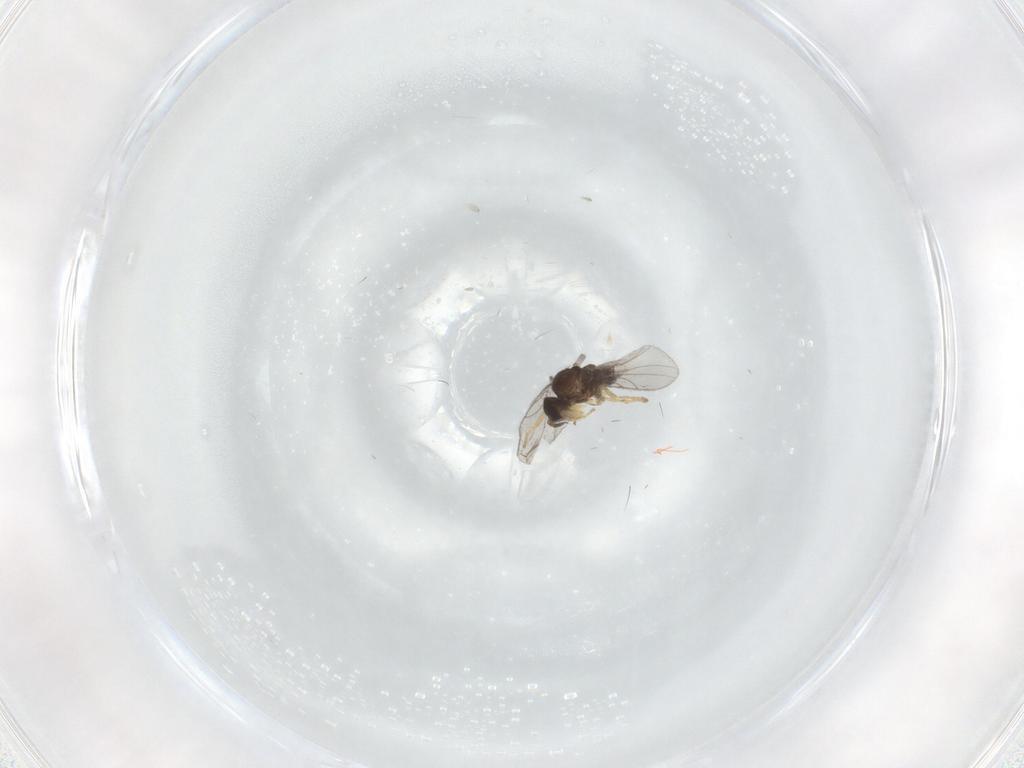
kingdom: Animalia
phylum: Arthropoda
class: Insecta
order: Diptera
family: Hybotidae
